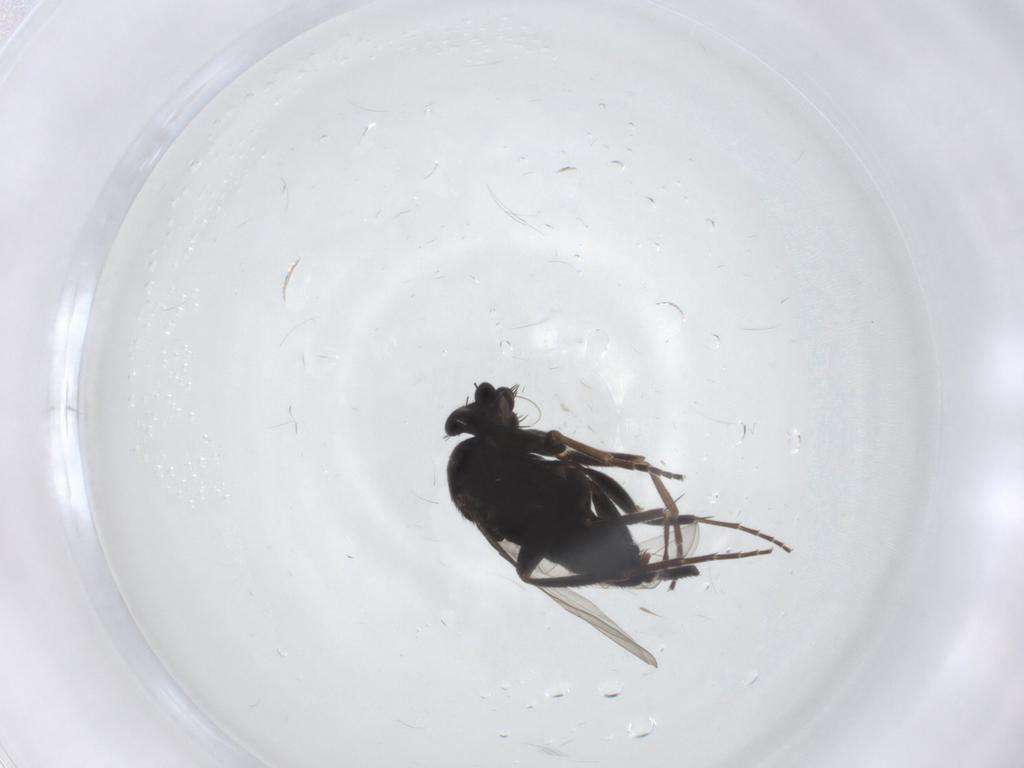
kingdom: Animalia
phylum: Arthropoda
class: Insecta
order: Diptera
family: Phoridae
